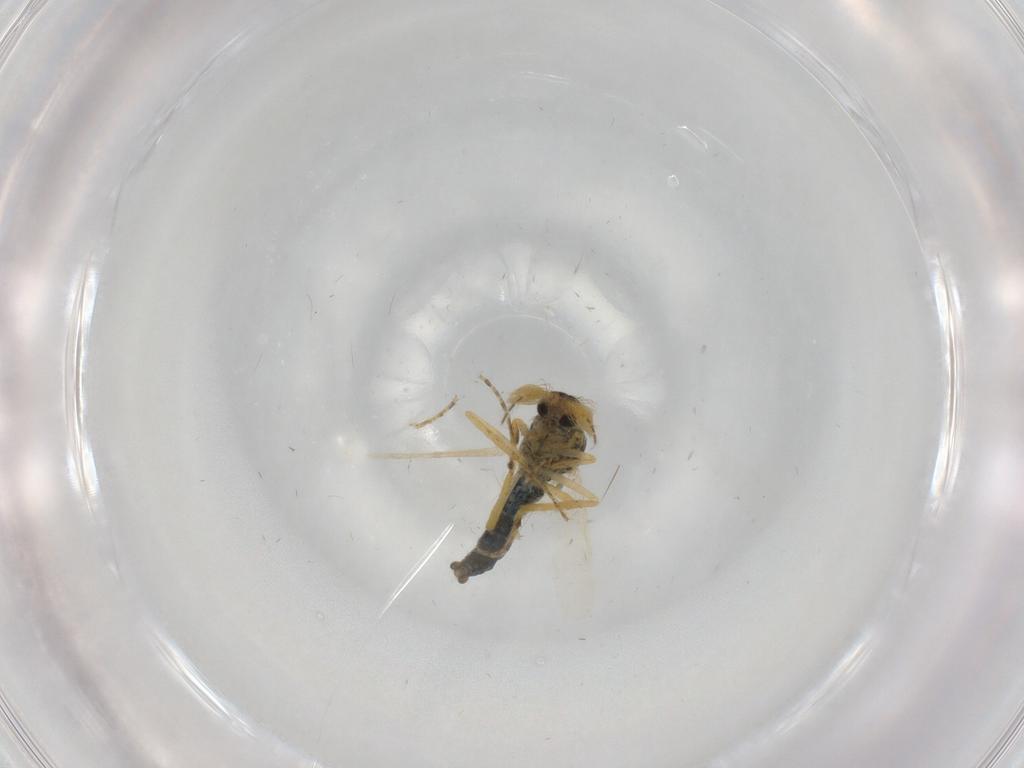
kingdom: Animalia
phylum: Arthropoda
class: Insecta
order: Diptera
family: Ceratopogonidae
